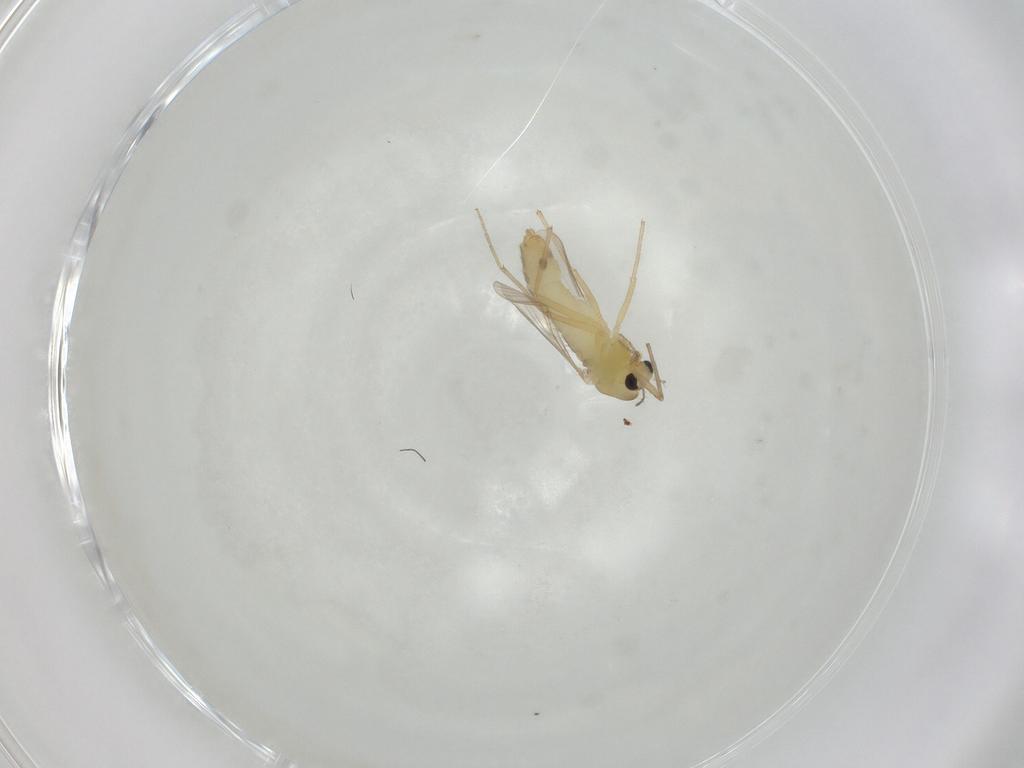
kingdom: Animalia
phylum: Arthropoda
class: Insecta
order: Diptera
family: Chironomidae
